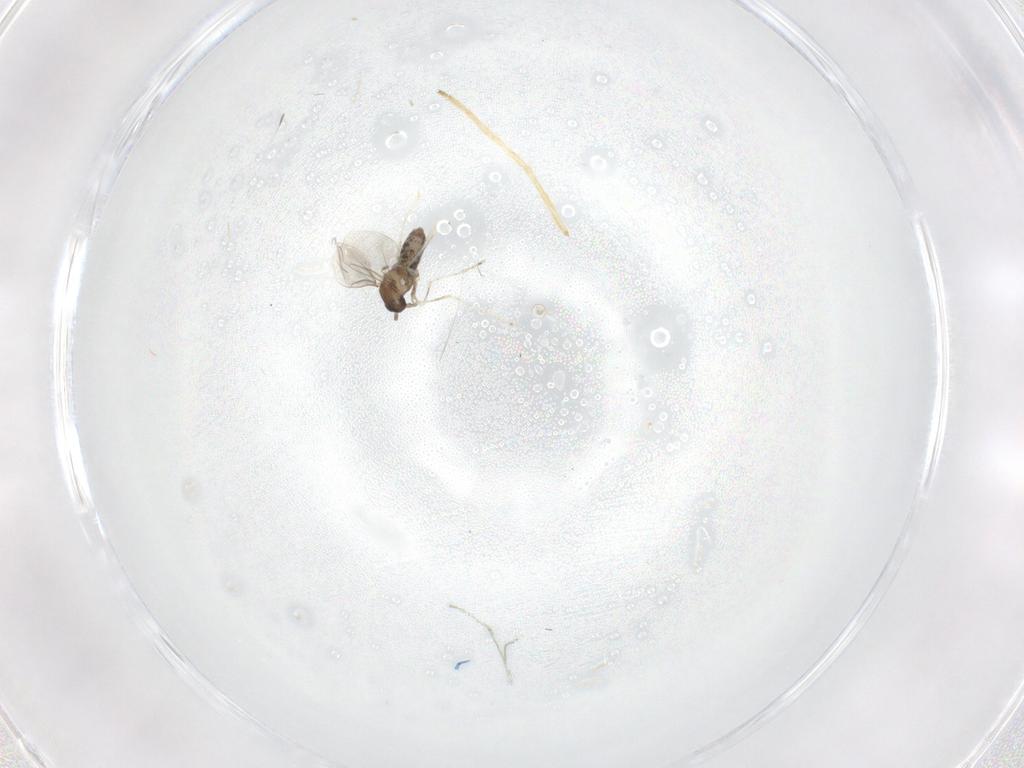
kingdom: Animalia
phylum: Arthropoda
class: Insecta
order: Diptera
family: Chironomidae
